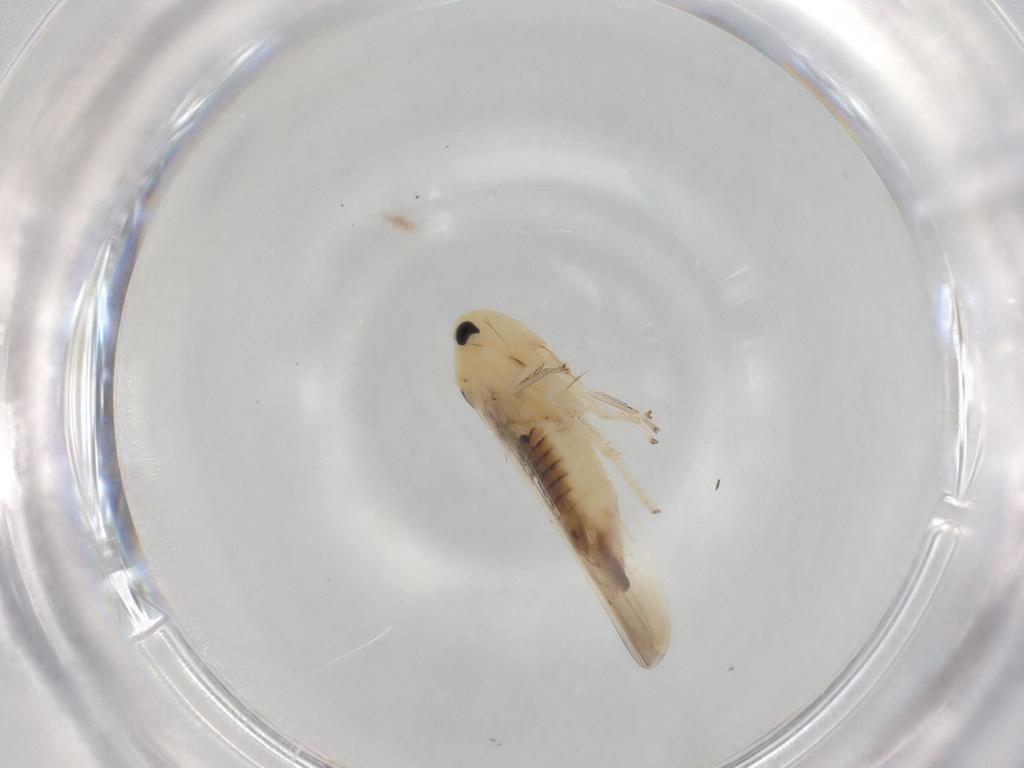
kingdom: Animalia
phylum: Arthropoda
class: Insecta
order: Hemiptera
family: Cicadellidae
